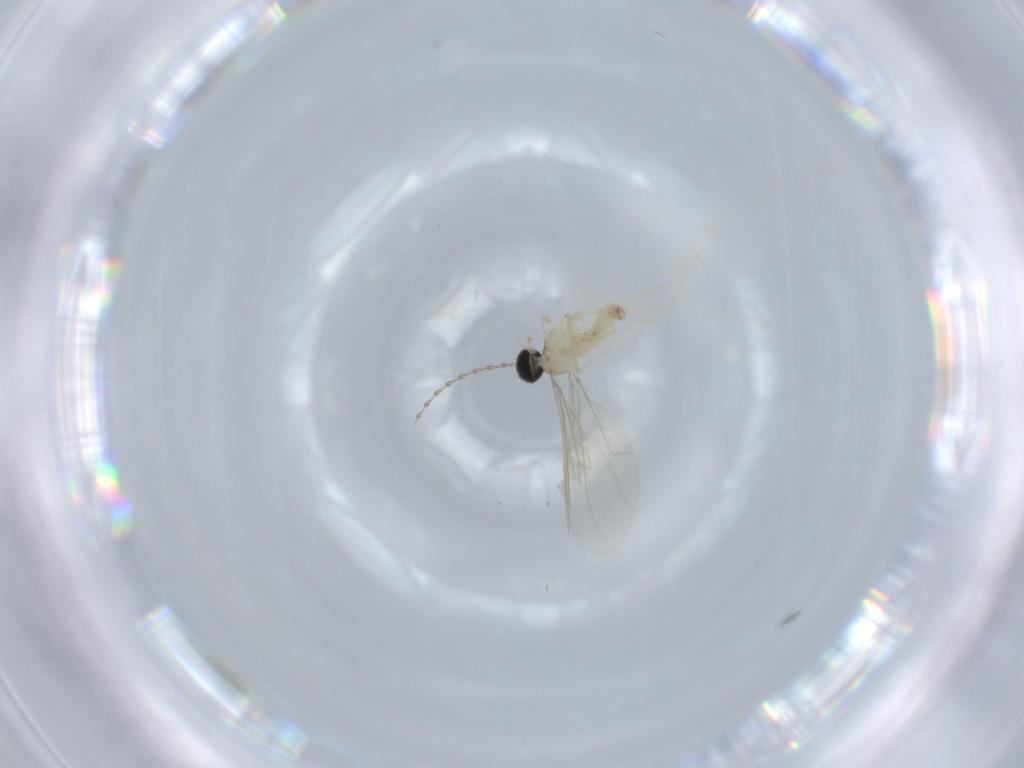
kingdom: Animalia
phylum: Arthropoda
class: Insecta
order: Diptera
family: Cecidomyiidae
